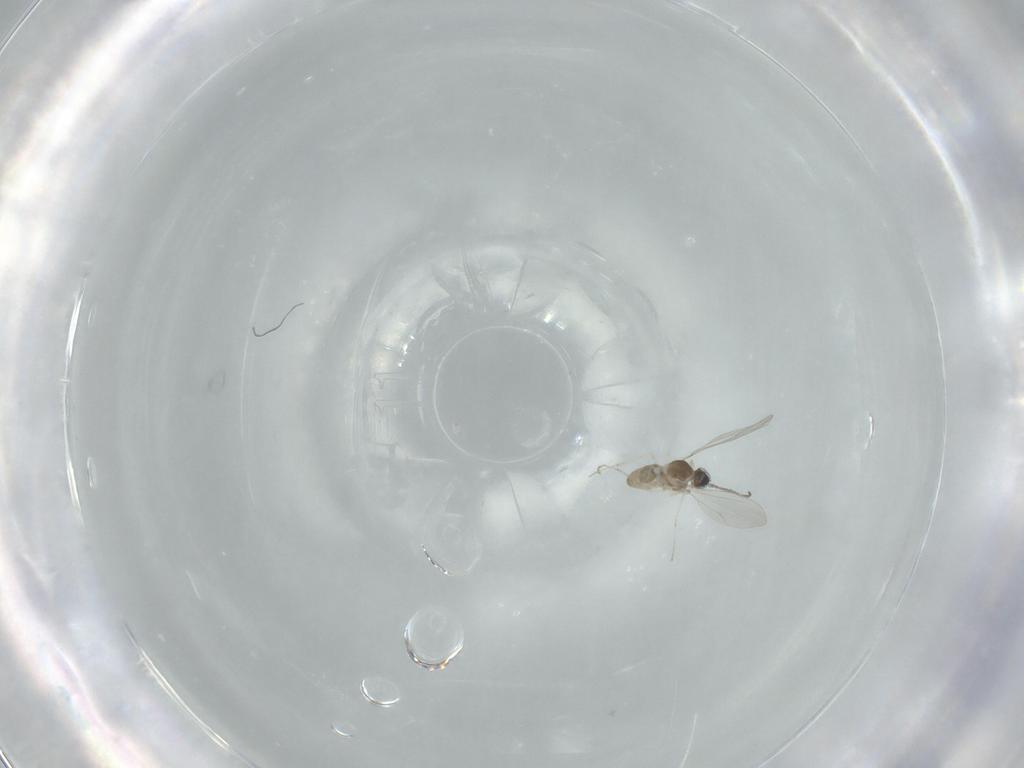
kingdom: Animalia
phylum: Arthropoda
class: Insecta
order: Diptera
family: Cecidomyiidae
